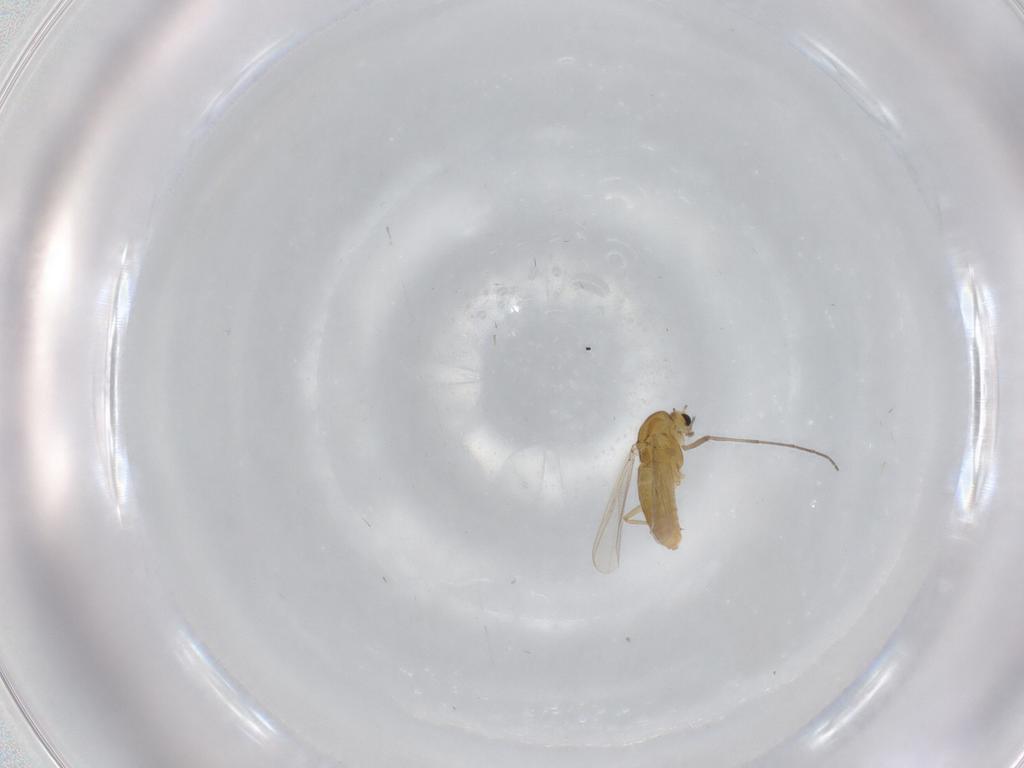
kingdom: Animalia
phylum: Arthropoda
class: Insecta
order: Diptera
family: Chironomidae
